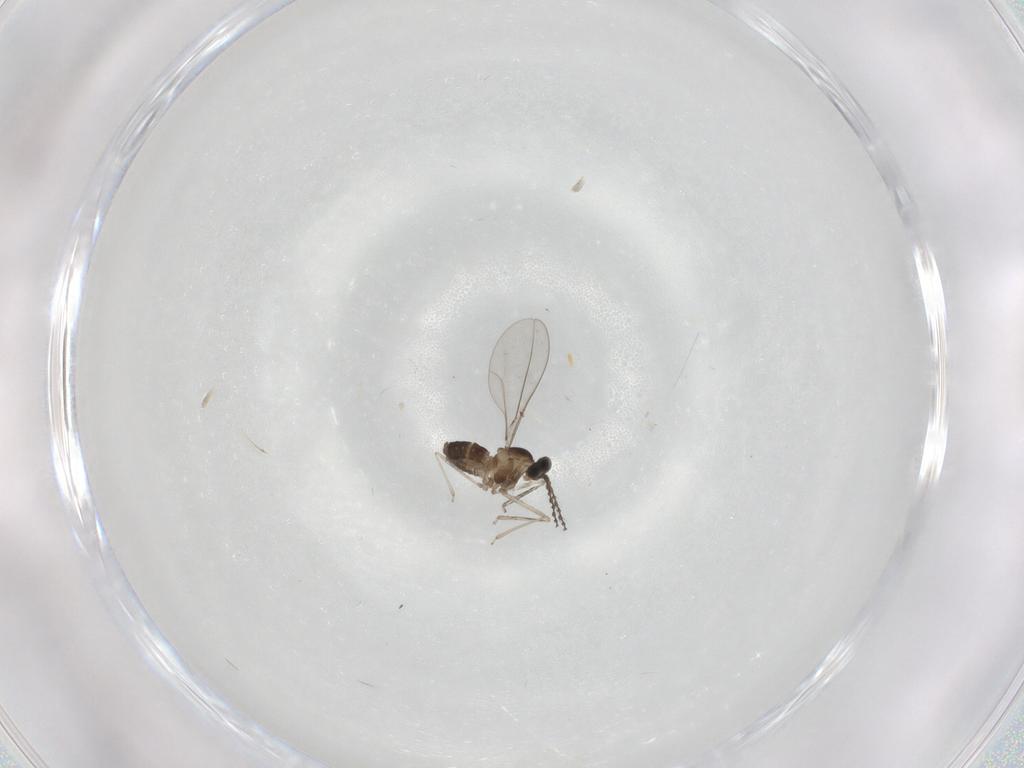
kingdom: Animalia
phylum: Arthropoda
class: Insecta
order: Diptera
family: Cecidomyiidae
